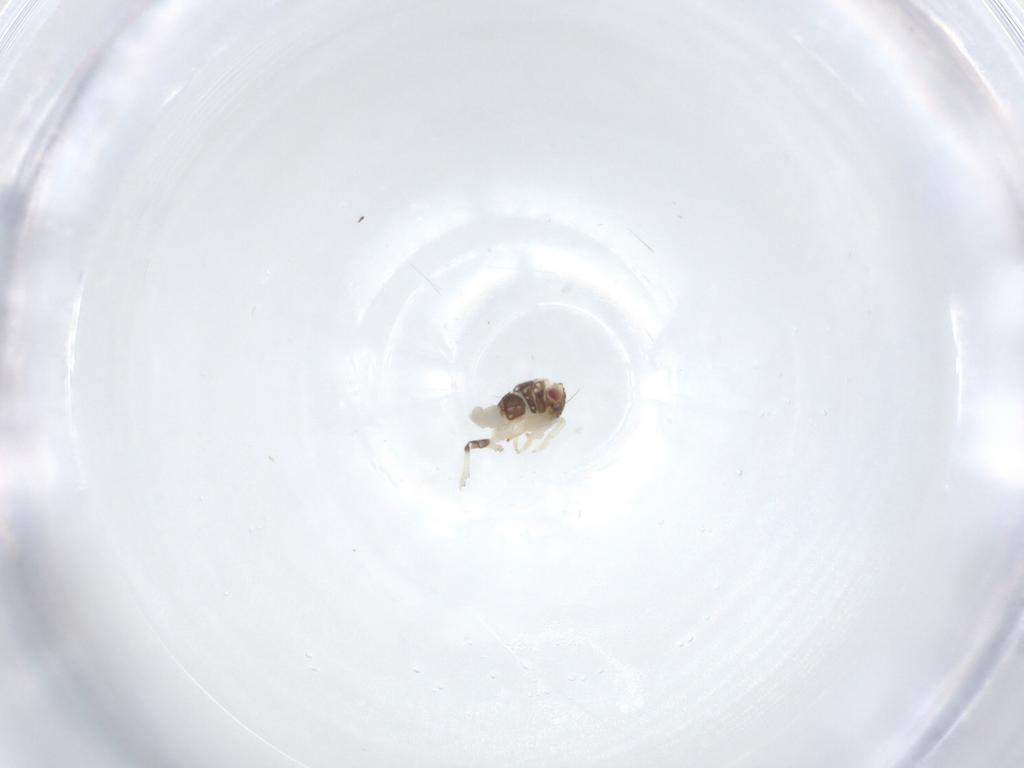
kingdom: Animalia
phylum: Arthropoda
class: Insecta
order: Hemiptera
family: Nogodinidae
